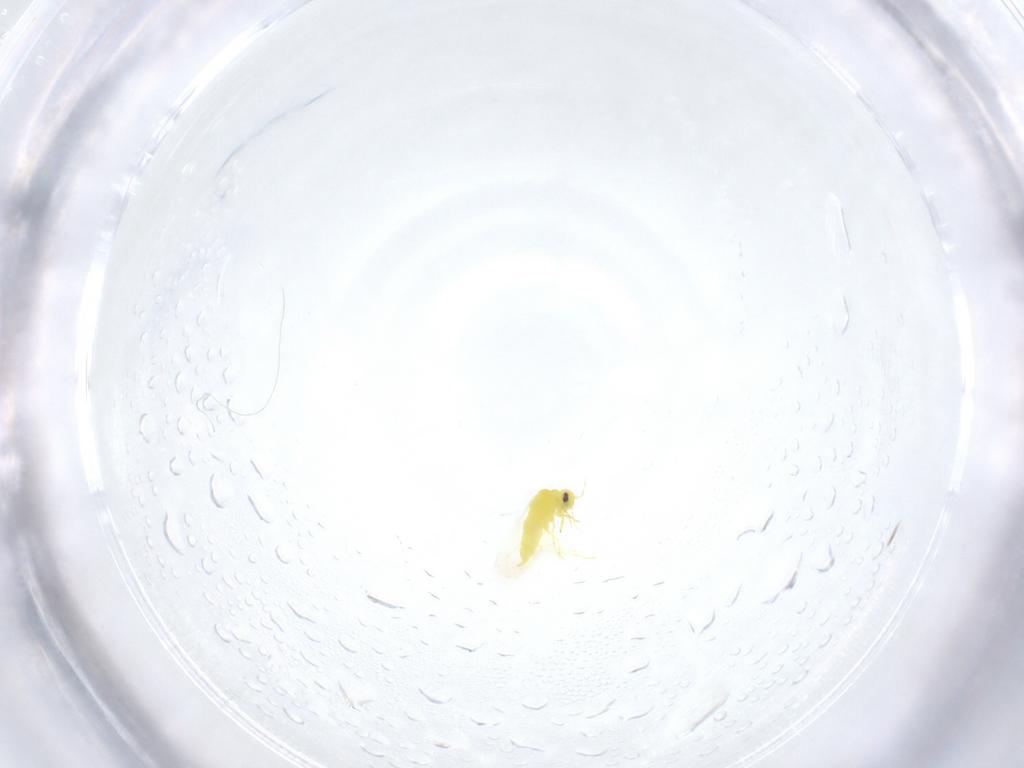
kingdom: Animalia
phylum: Arthropoda
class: Insecta
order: Hemiptera
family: Aleyrodidae
